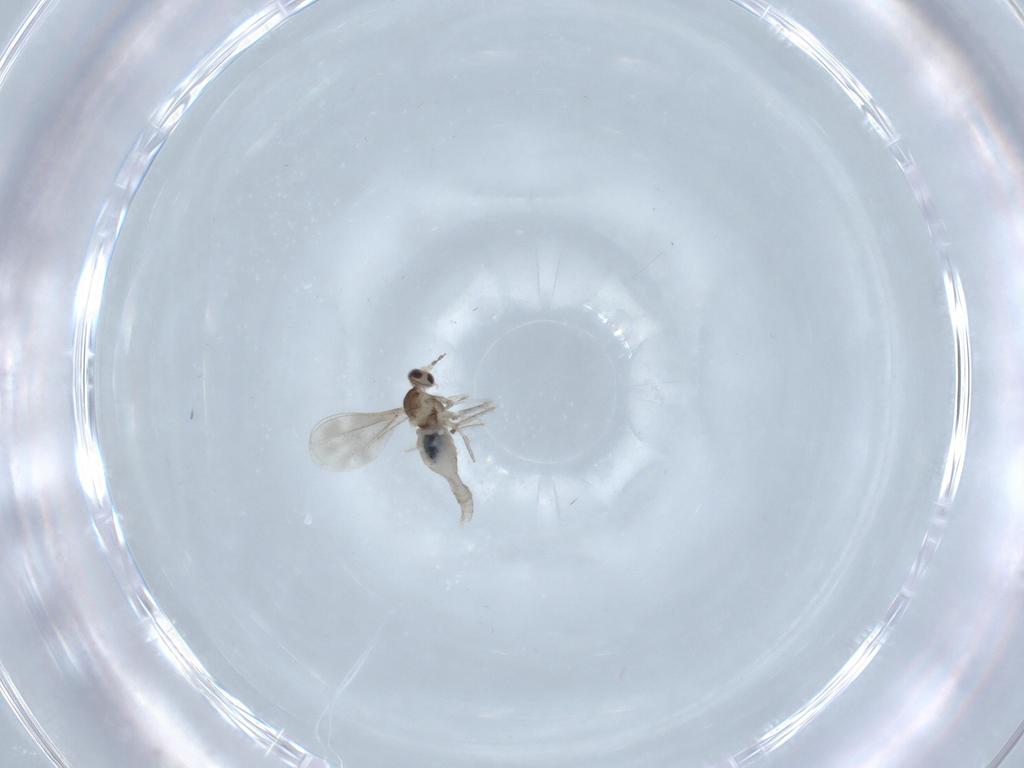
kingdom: Animalia
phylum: Arthropoda
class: Insecta
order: Diptera
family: Cecidomyiidae
